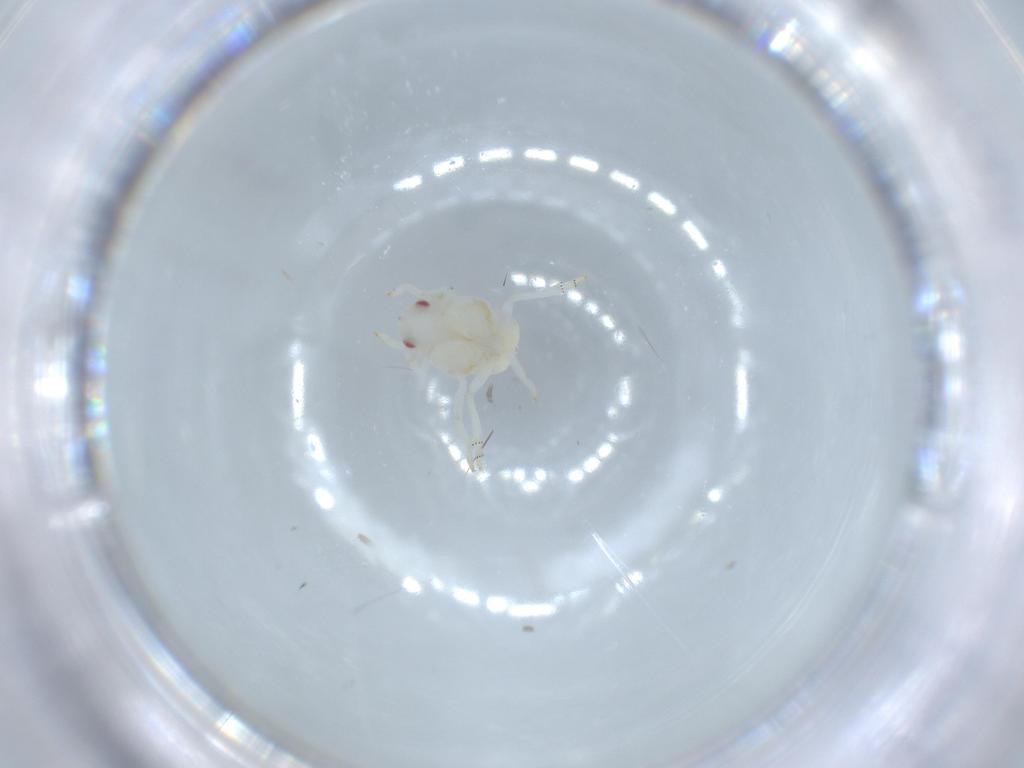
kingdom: Animalia
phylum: Arthropoda
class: Insecta
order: Hemiptera
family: Flatidae
